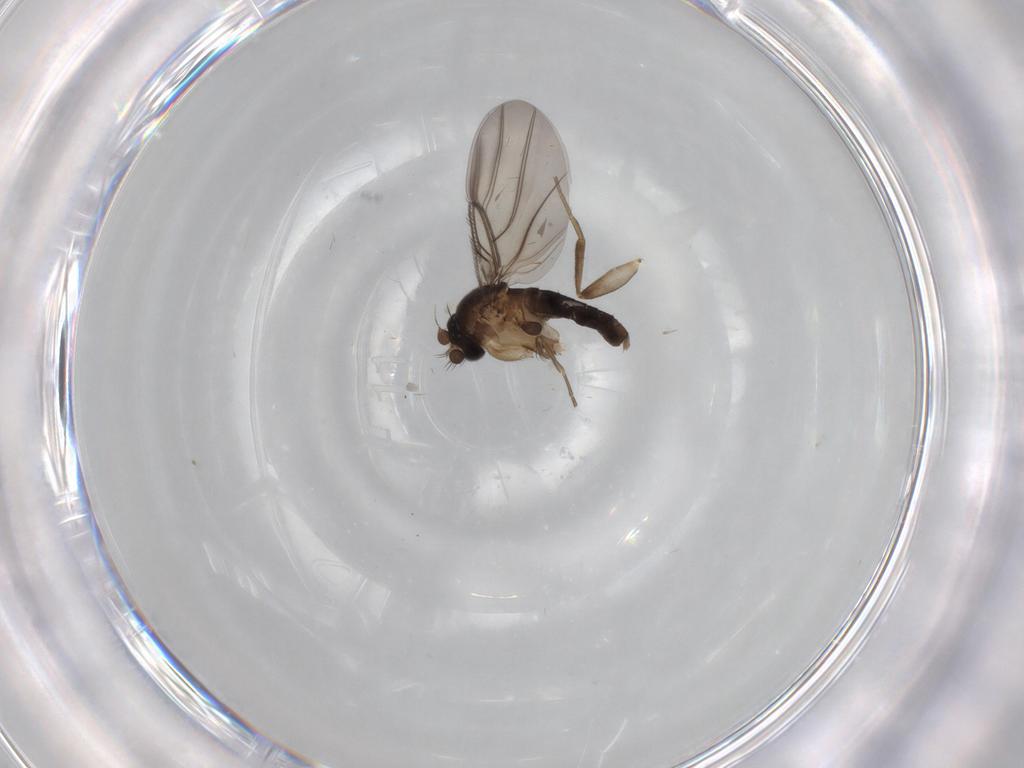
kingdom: Animalia
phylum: Arthropoda
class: Insecta
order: Diptera
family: Phoridae
